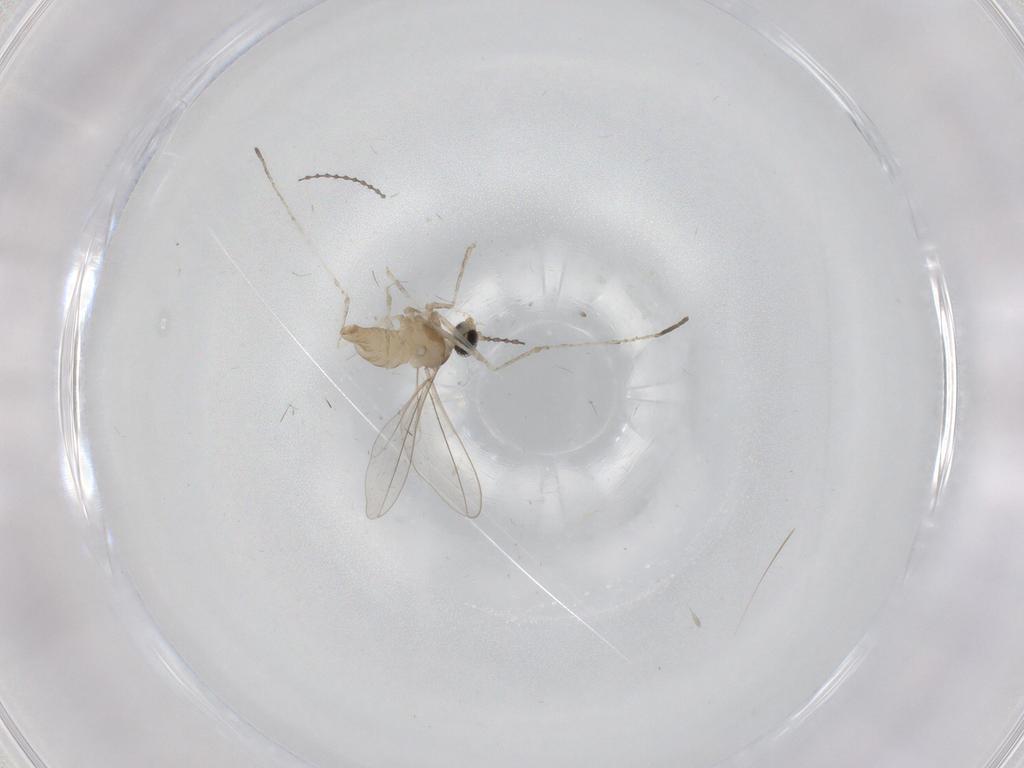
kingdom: Animalia
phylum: Arthropoda
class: Insecta
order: Diptera
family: Cecidomyiidae
